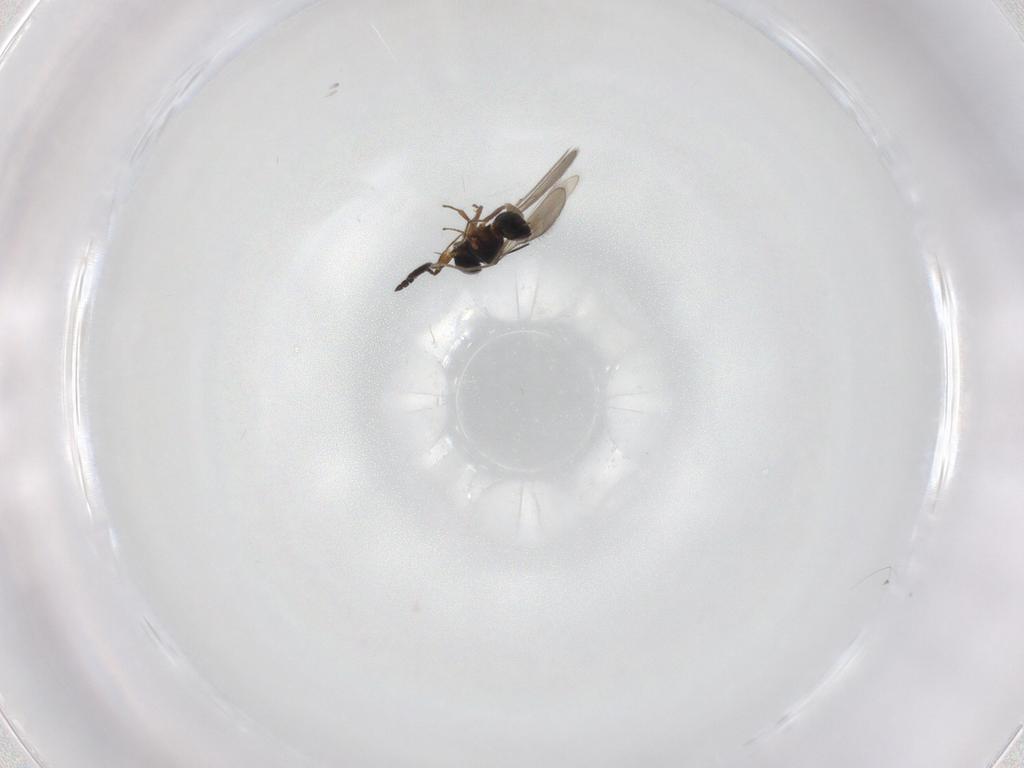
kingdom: Animalia
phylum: Arthropoda
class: Insecta
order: Hymenoptera
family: Scelionidae
